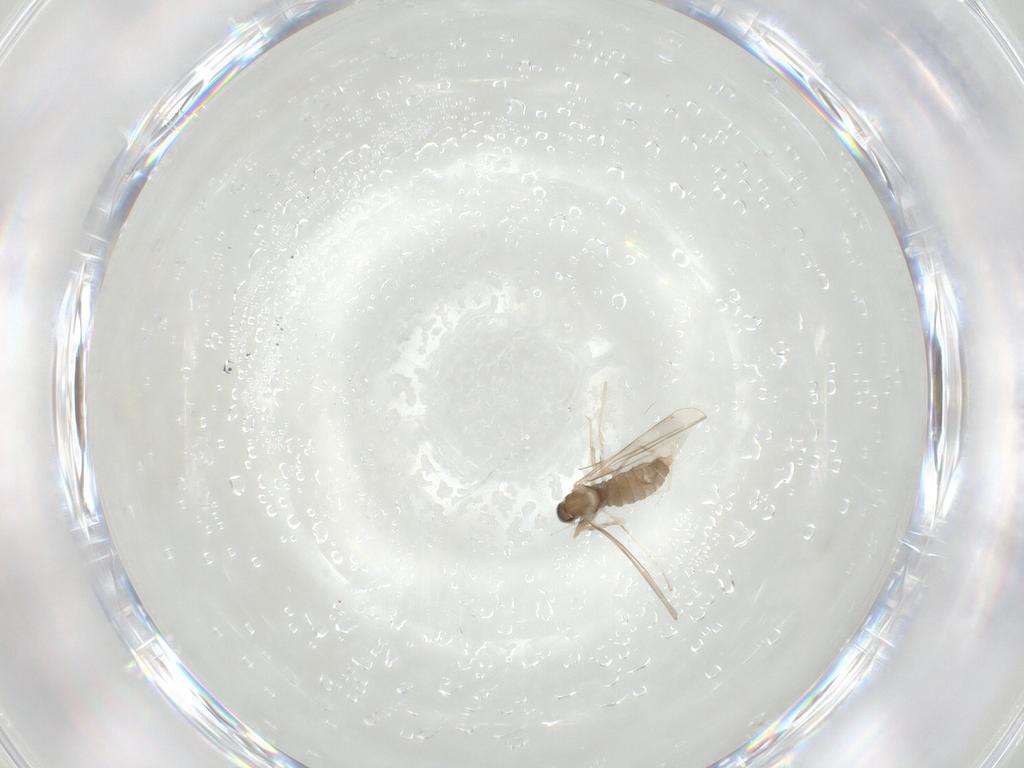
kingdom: Animalia
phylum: Arthropoda
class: Insecta
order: Diptera
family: Cecidomyiidae
